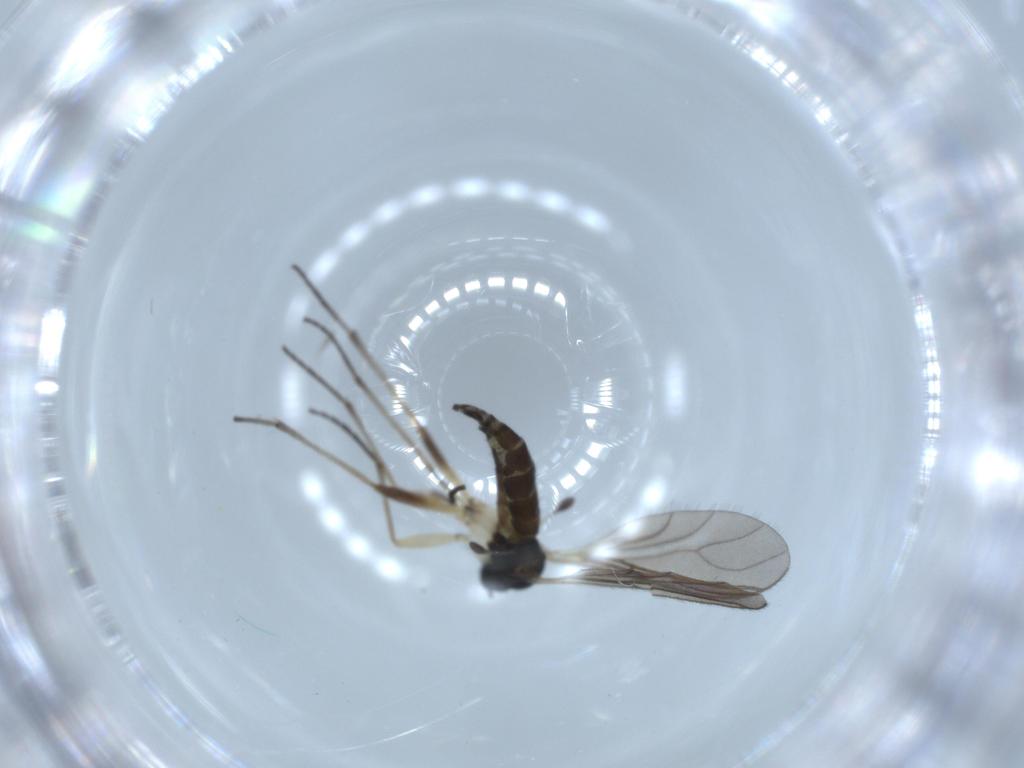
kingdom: Animalia
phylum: Arthropoda
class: Insecta
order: Diptera
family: Sciaridae
